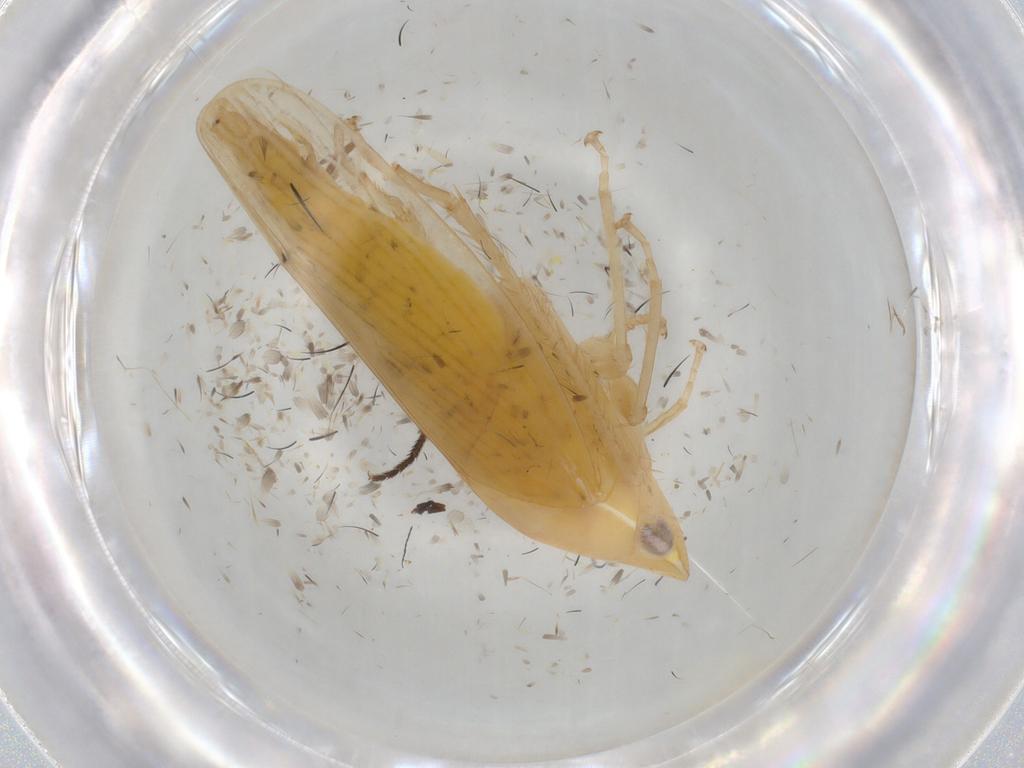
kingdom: Animalia
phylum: Arthropoda
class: Insecta
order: Hemiptera
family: Cicadellidae
